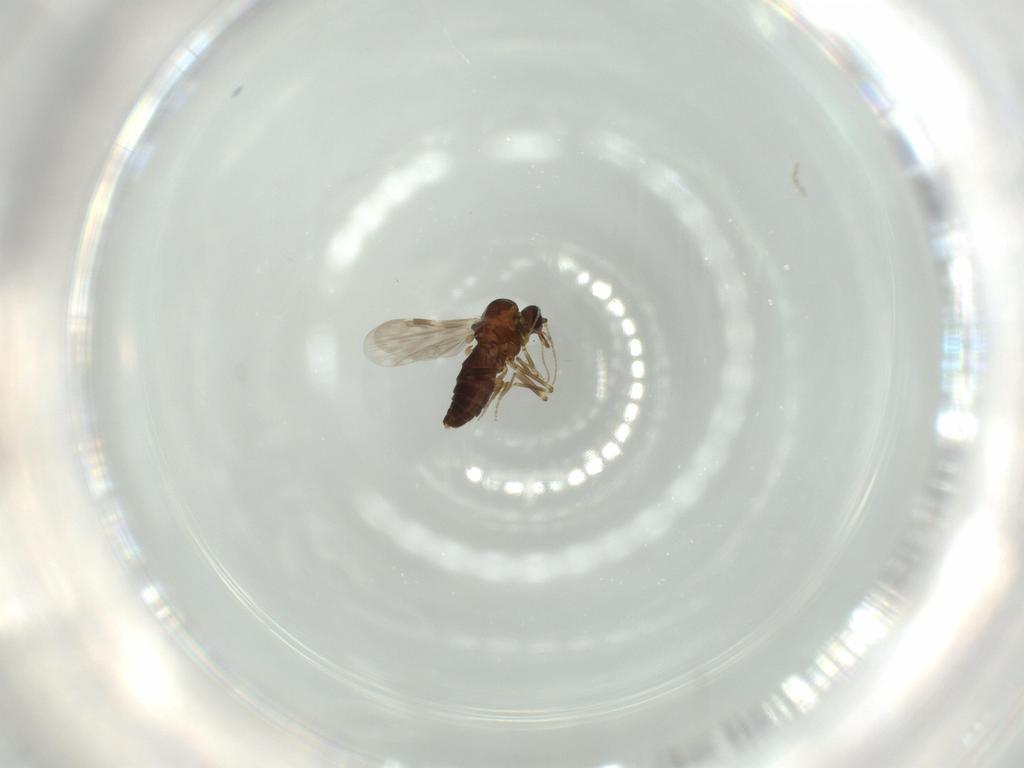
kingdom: Animalia
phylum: Arthropoda
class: Insecta
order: Diptera
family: Ceratopogonidae
